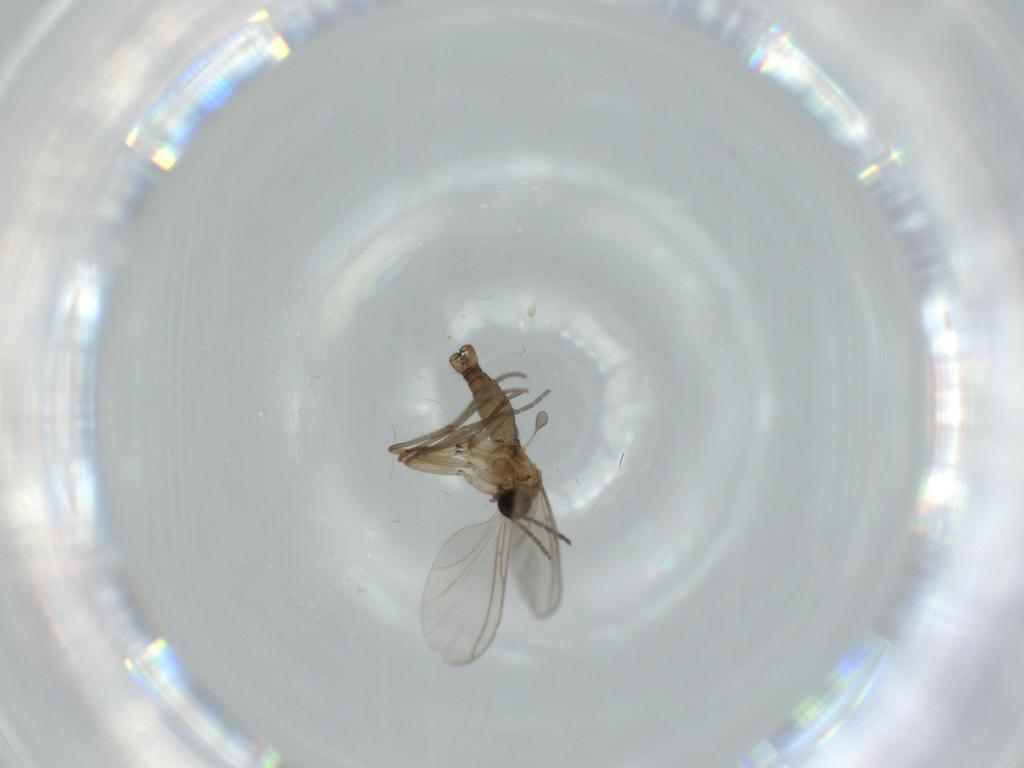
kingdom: Animalia
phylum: Arthropoda
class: Insecta
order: Diptera
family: Sciaridae
